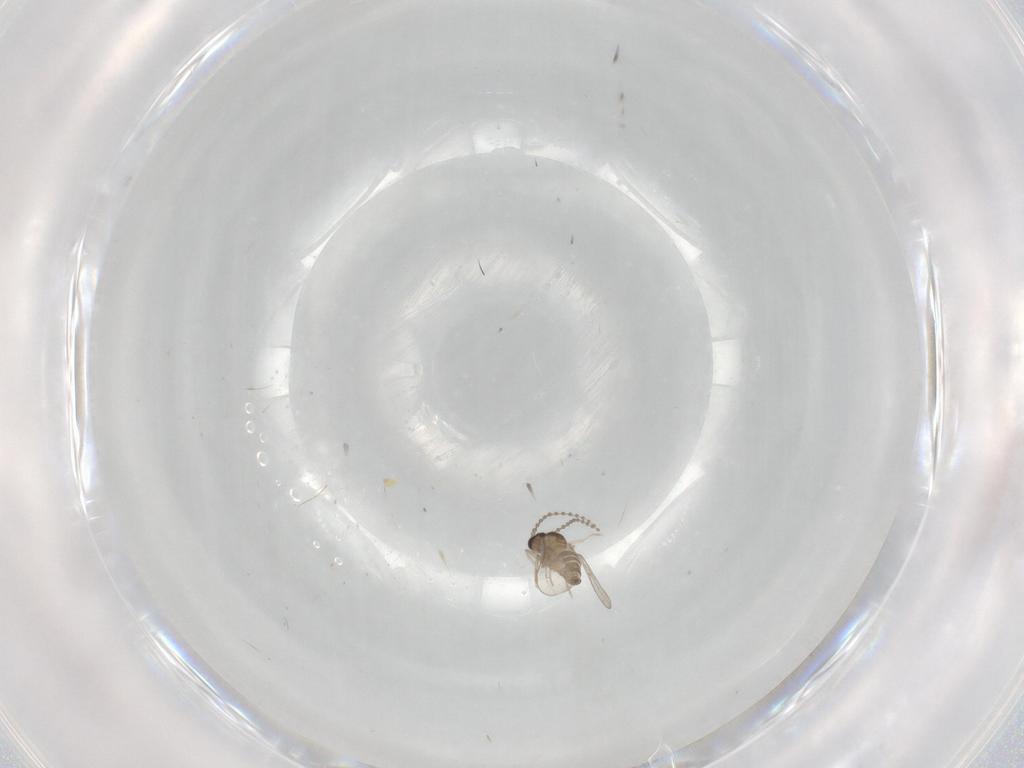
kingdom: Animalia
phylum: Arthropoda
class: Insecta
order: Diptera
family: Cecidomyiidae
